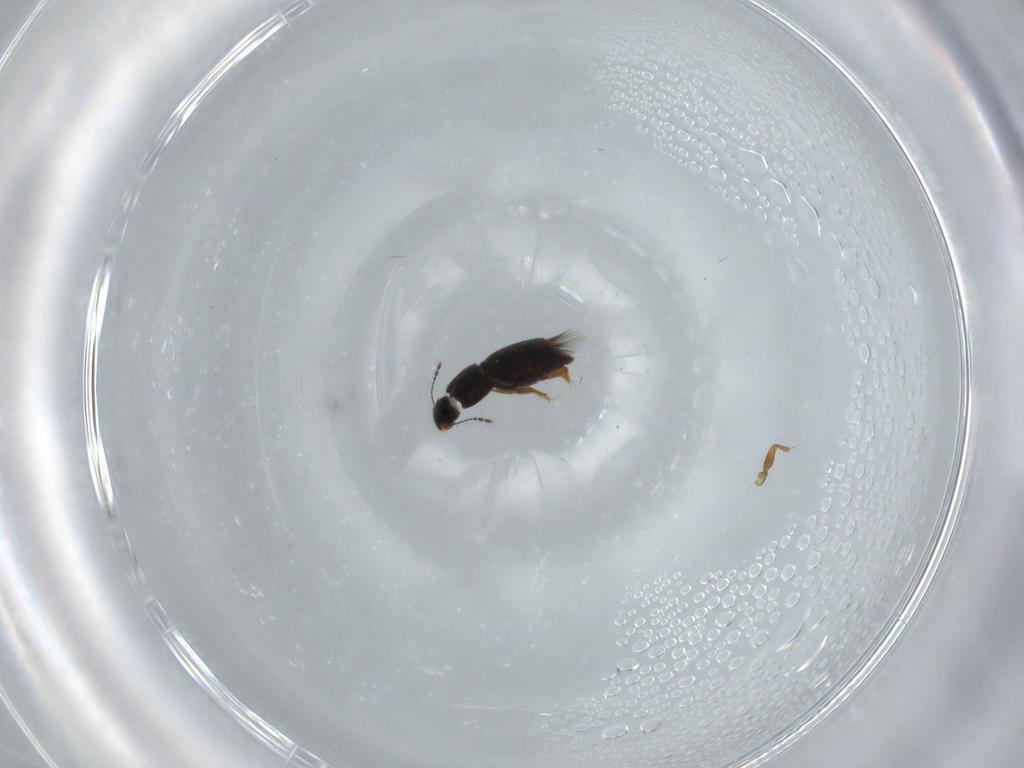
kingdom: Animalia
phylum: Arthropoda
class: Insecta
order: Coleoptera
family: Ptiliidae
